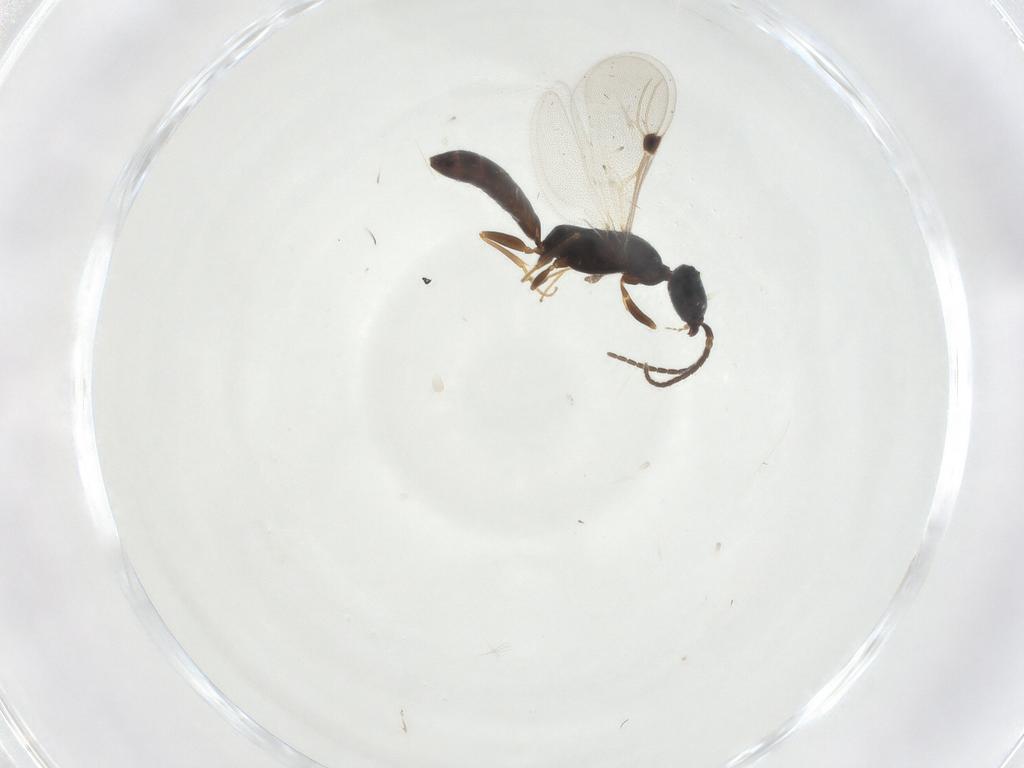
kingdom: Animalia
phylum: Arthropoda
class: Insecta
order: Hymenoptera
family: Bethylidae
